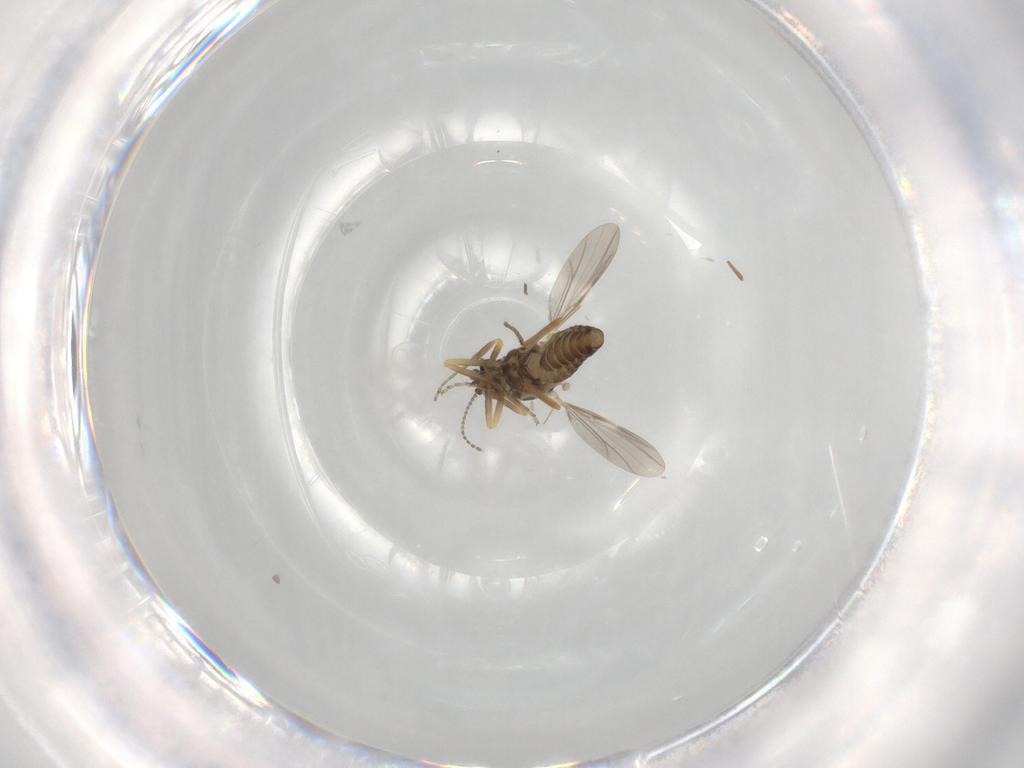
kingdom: Animalia
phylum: Arthropoda
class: Insecta
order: Diptera
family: Ceratopogonidae
